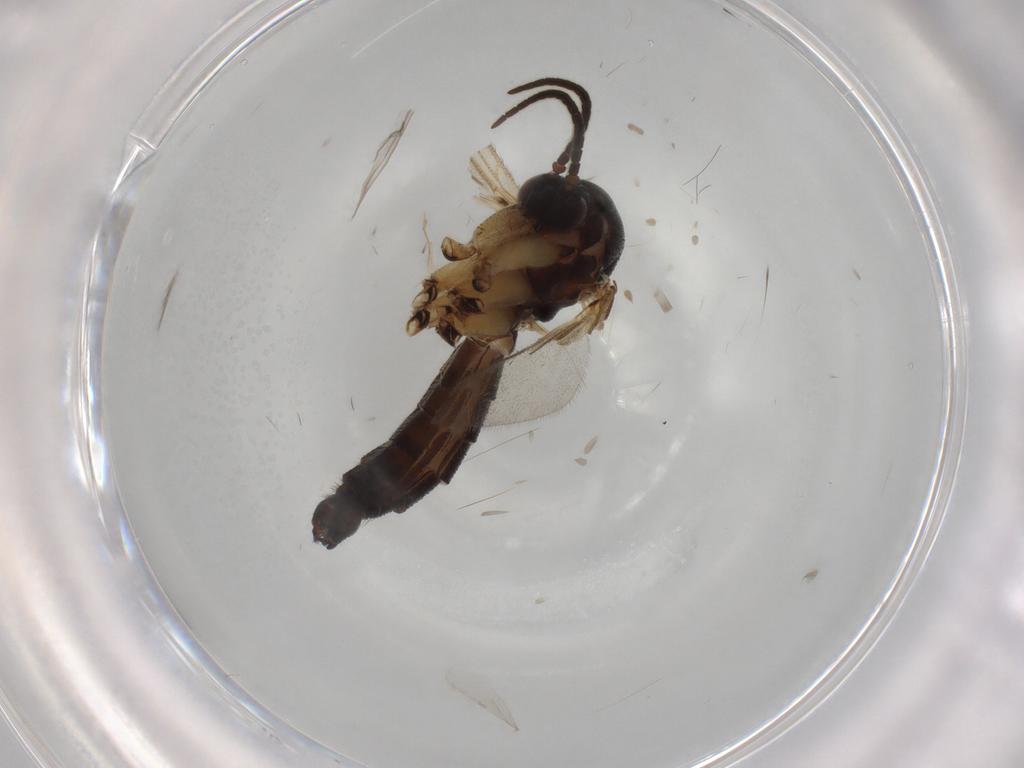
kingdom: Animalia
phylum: Arthropoda
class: Insecta
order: Diptera
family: Cecidomyiidae
